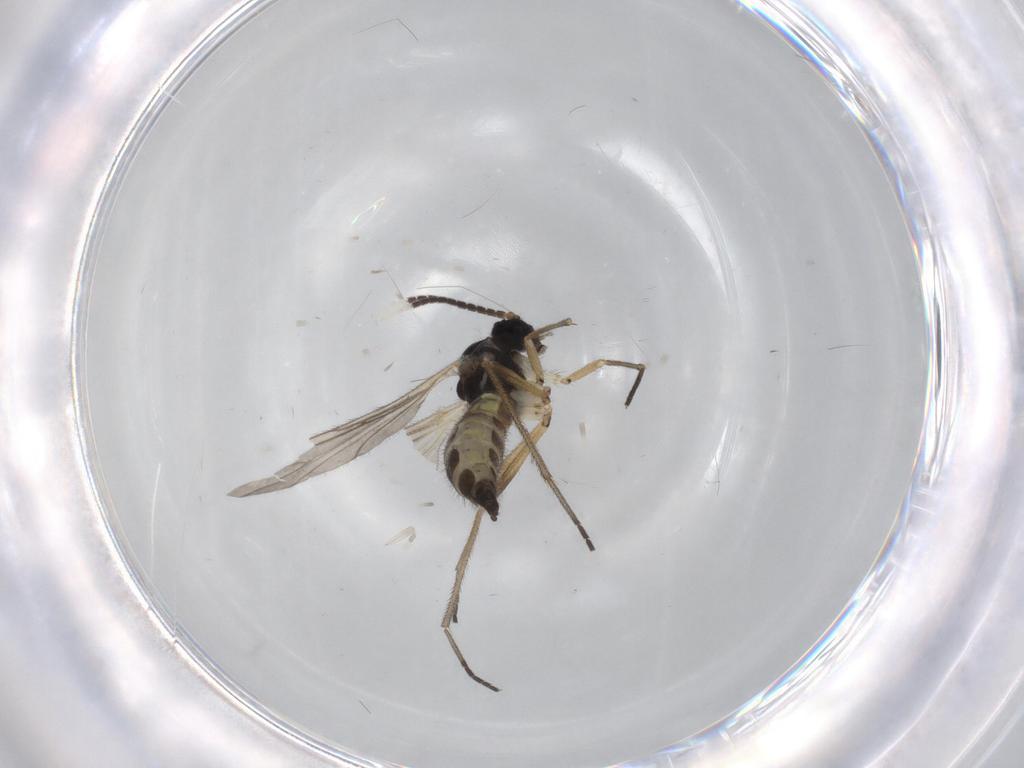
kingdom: Animalia
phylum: Arthropoda
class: Insecta
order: Diptera
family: Sciaridae
